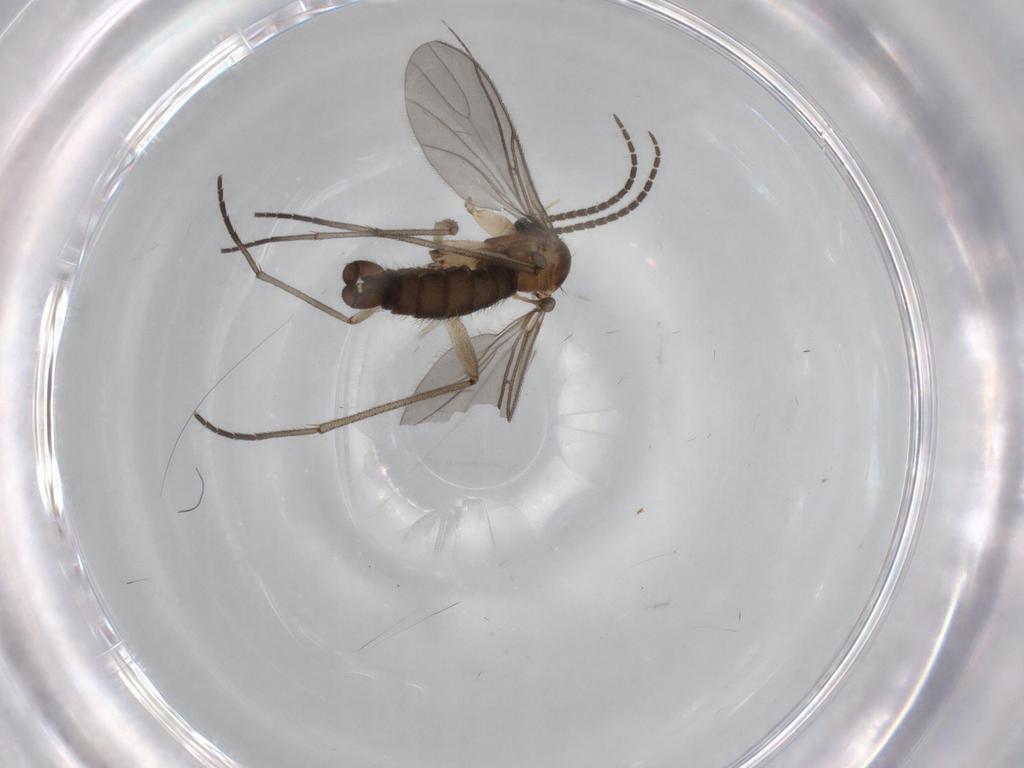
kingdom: Animalia
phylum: Arthropoda
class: Insecta
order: Diptera
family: Sciaridae
